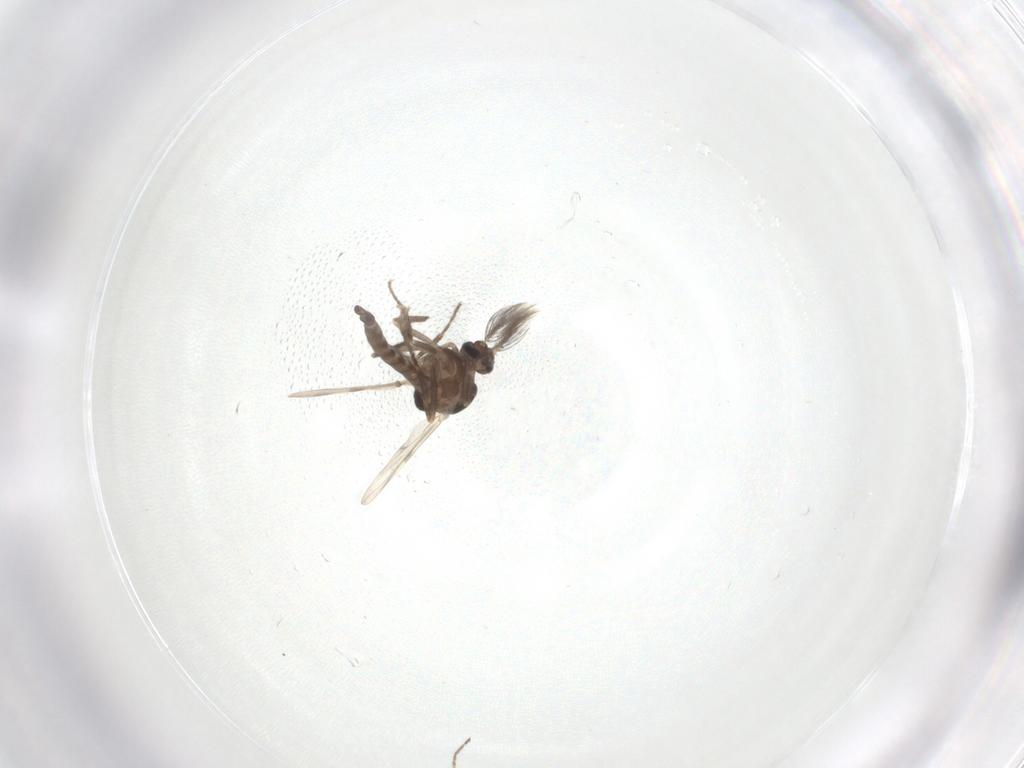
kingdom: Animalia
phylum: Arthropoda
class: Insecta
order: Diptera
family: Ceratopogonidae
